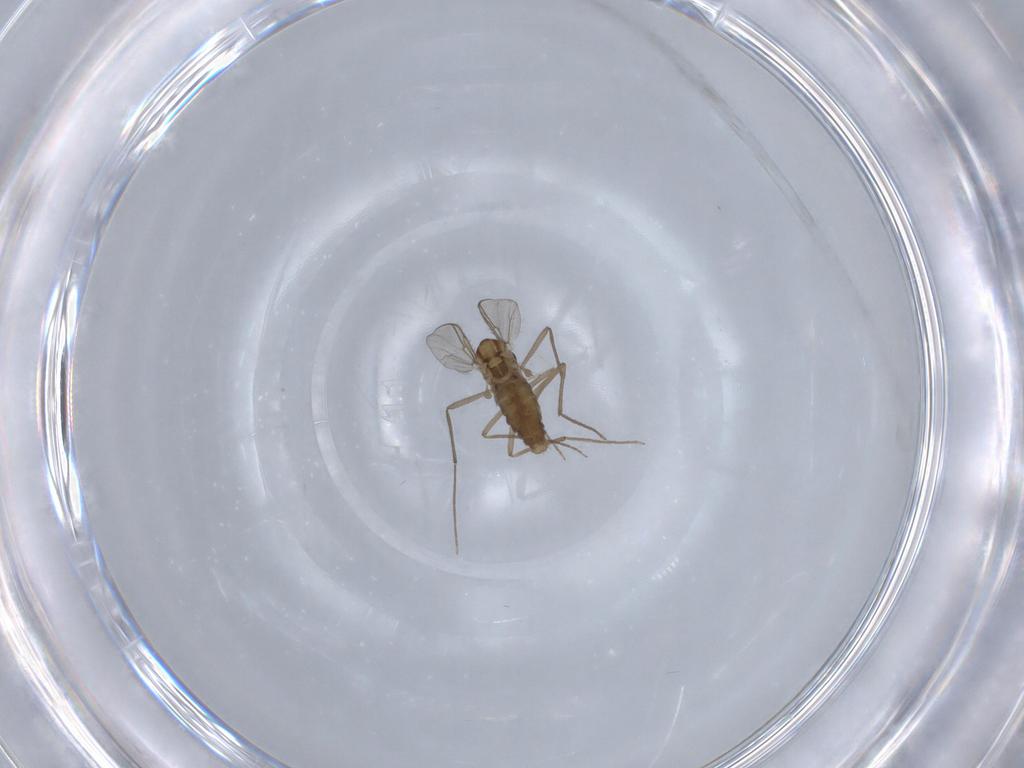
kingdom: Animalia
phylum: Arthropoda
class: Insecta
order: Diptera
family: Chironomidae
